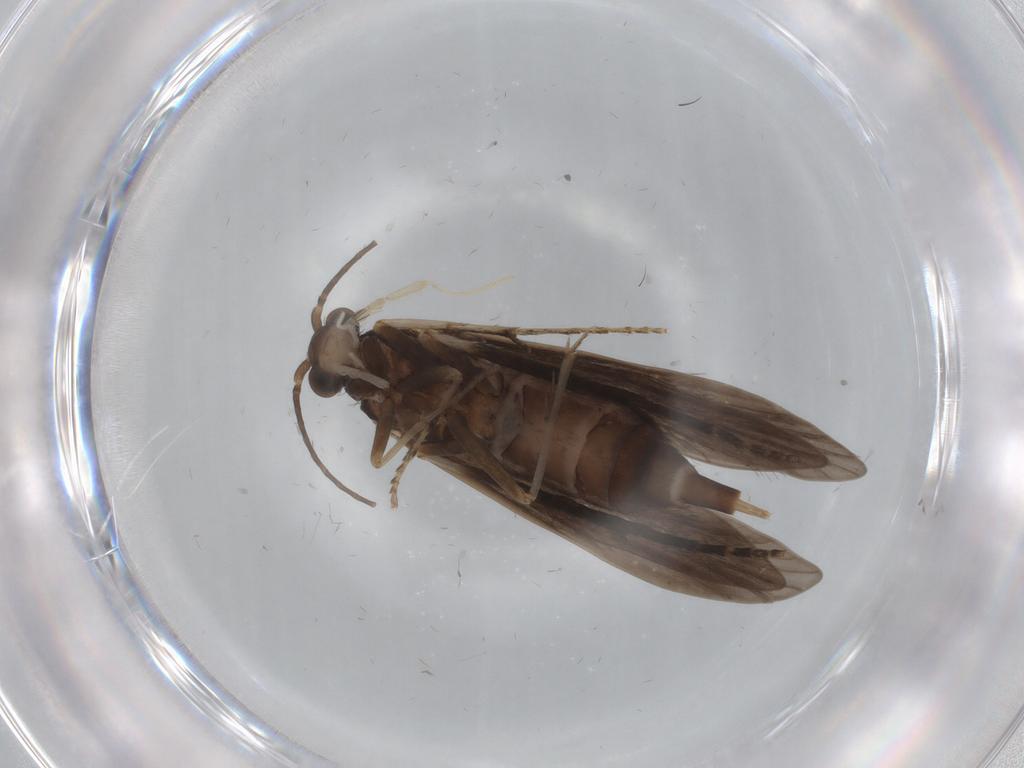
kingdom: Animalia
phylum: Arthropoda
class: Insecta
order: Trichoptera
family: Xiphocentronidae
